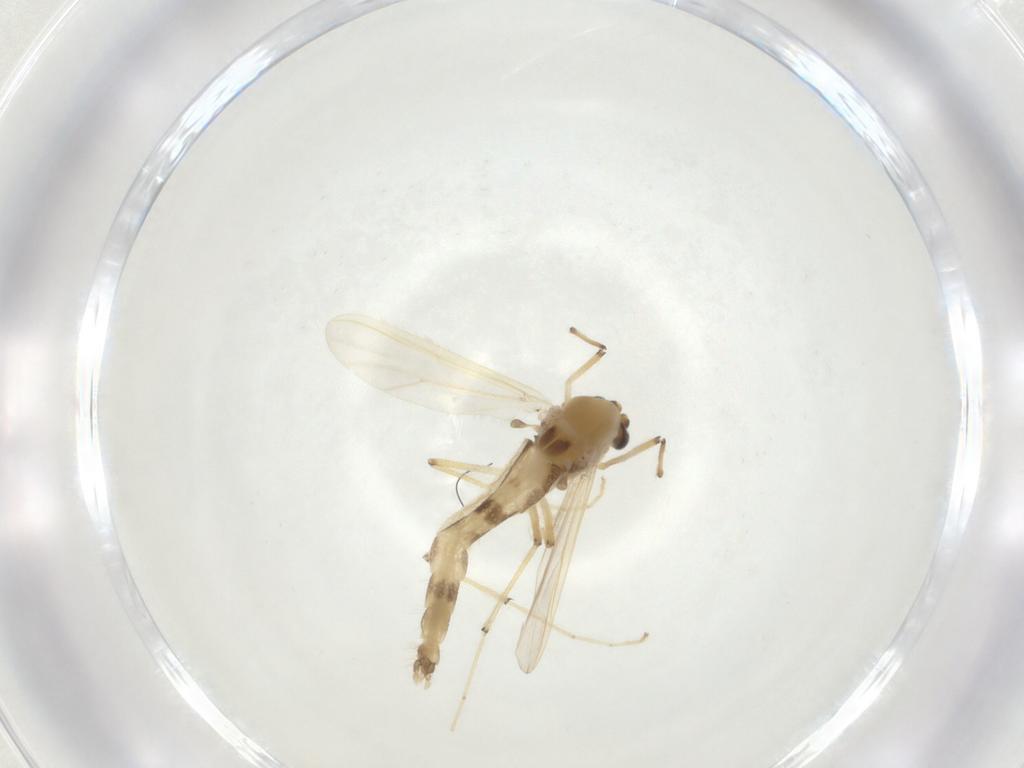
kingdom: Animalia
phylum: Arthropoda
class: Insecta
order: Diptera
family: Chironomidae
